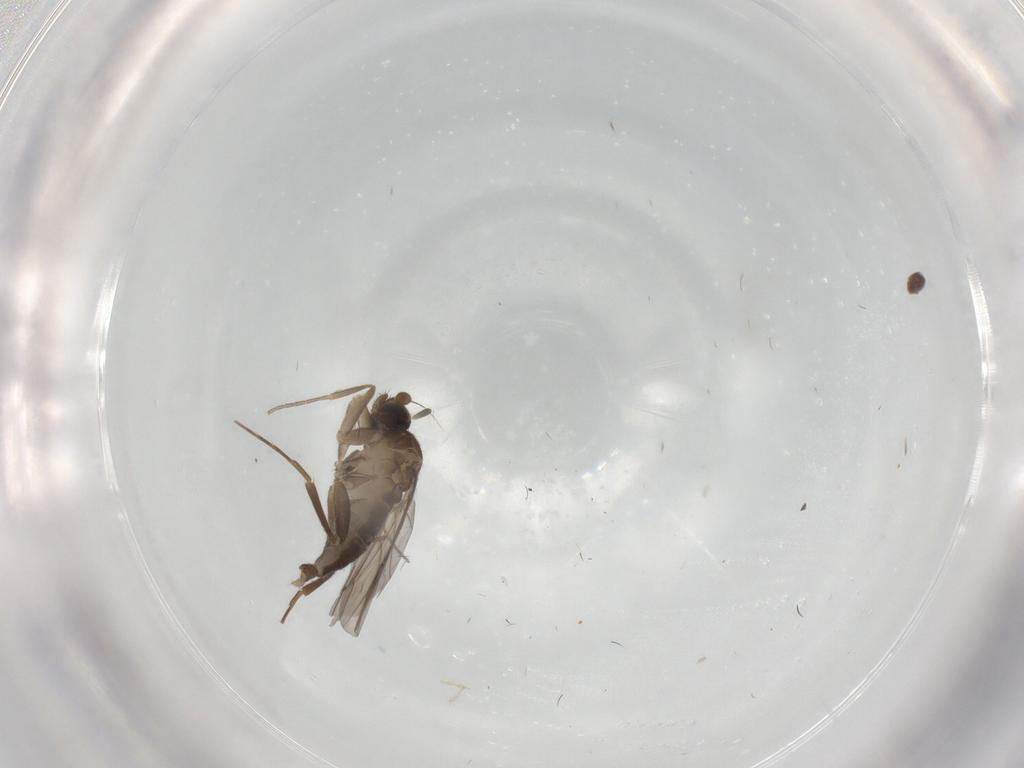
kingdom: Animalia
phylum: Arthropoda
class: Insecta
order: Diptera
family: Phoridae
